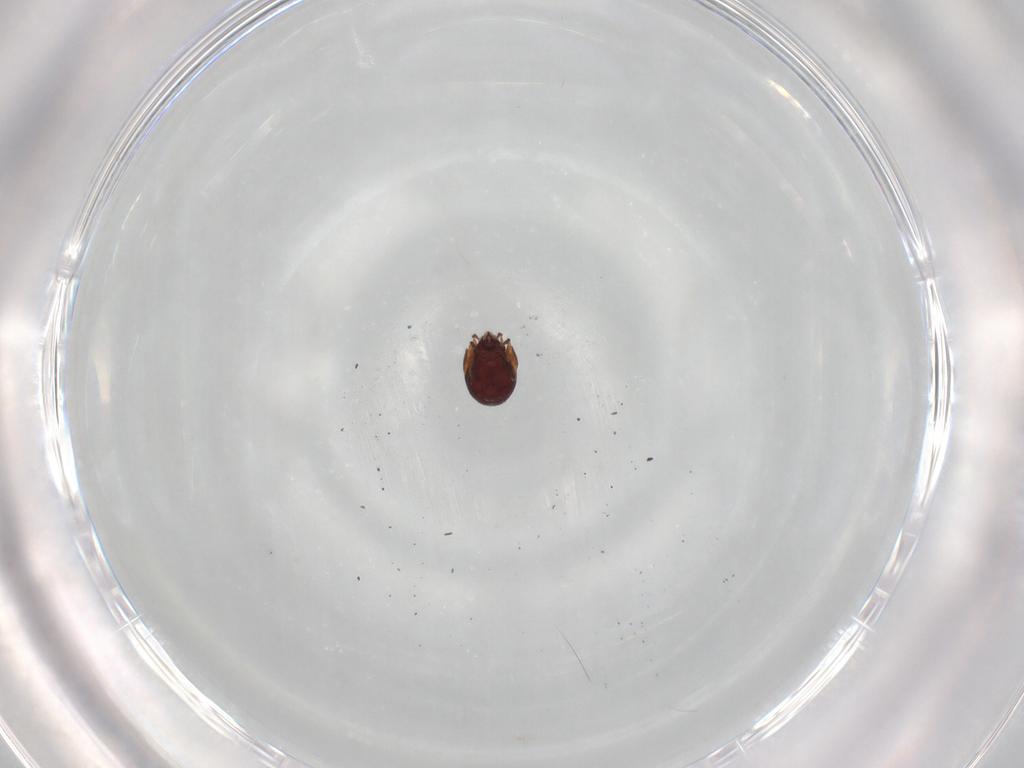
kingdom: Animalia
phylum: Arthropoda
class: Arachnida
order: Sarcoptiformes
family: Humerobatidae
